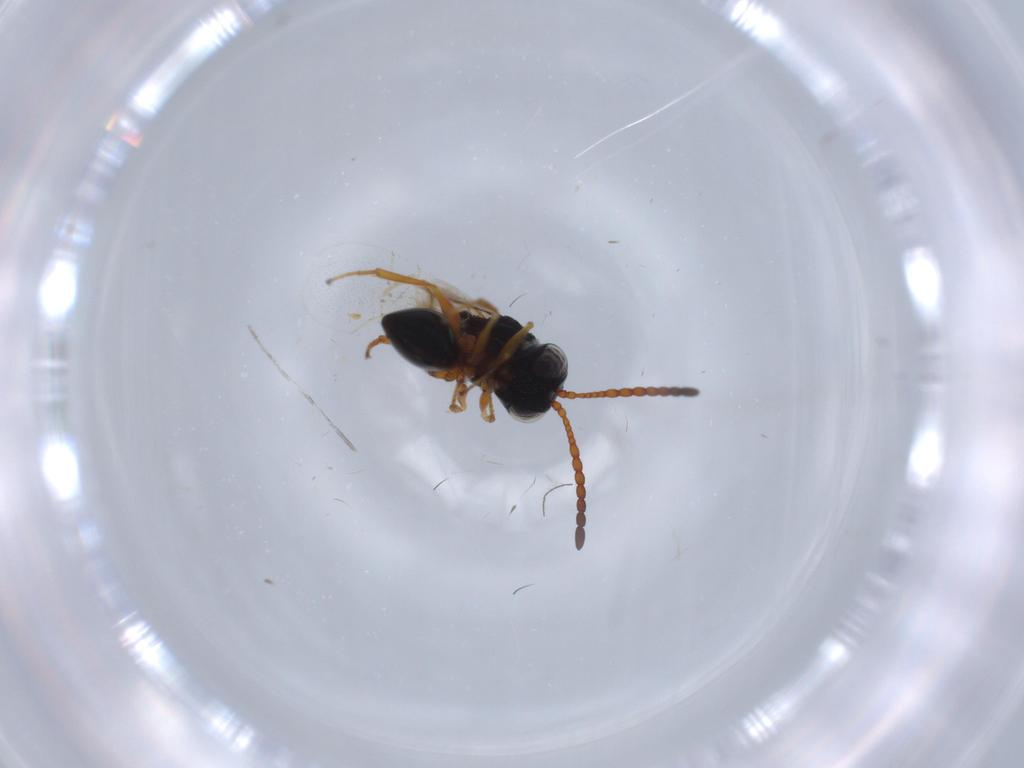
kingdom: Animalia
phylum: Arthropoda
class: Insecta
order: Hymenoptera
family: Figitidae
